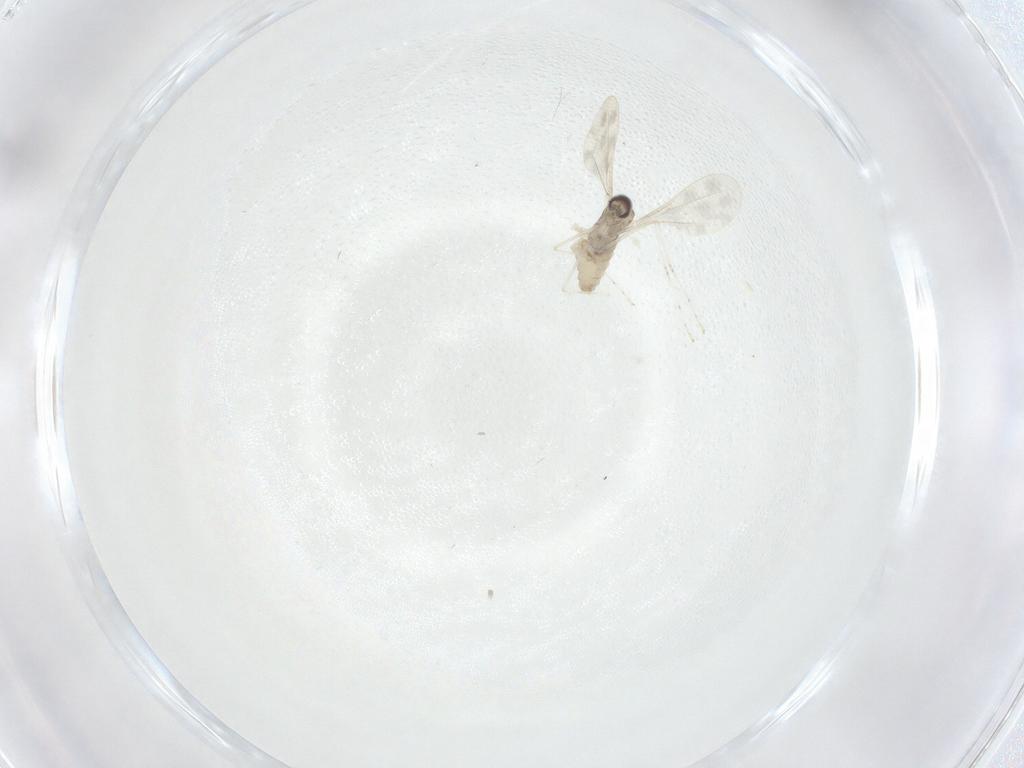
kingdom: Animalia
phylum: Arthropoda
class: Insecta
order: Diptera
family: Cecidomyiidae
